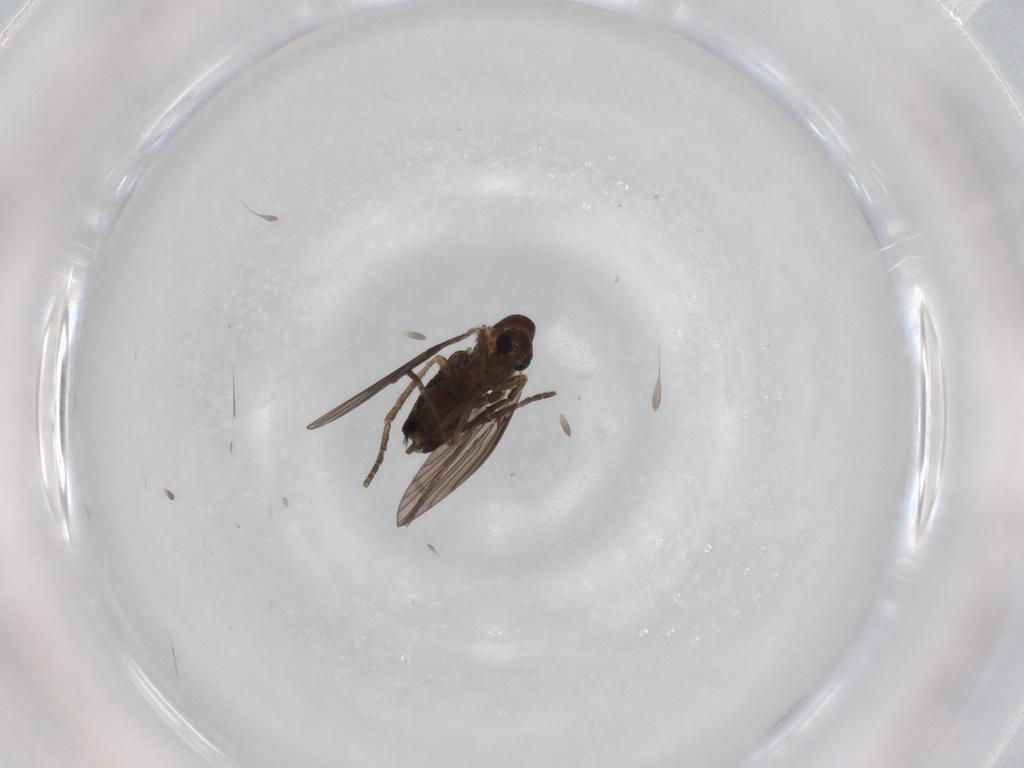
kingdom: Animalia
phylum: Arthropoda
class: Insecta
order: Diptera
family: Cecidomyiidae
